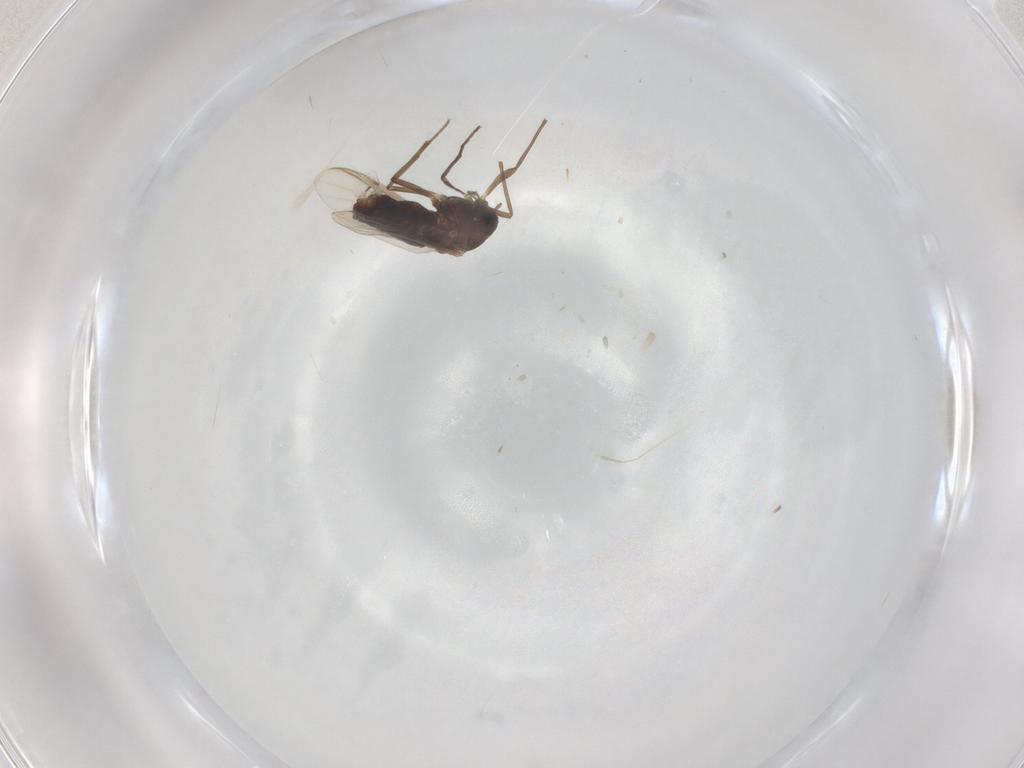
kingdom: Animalia
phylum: Arthropoda
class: Insecta
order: Diptera
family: Chironomidae
